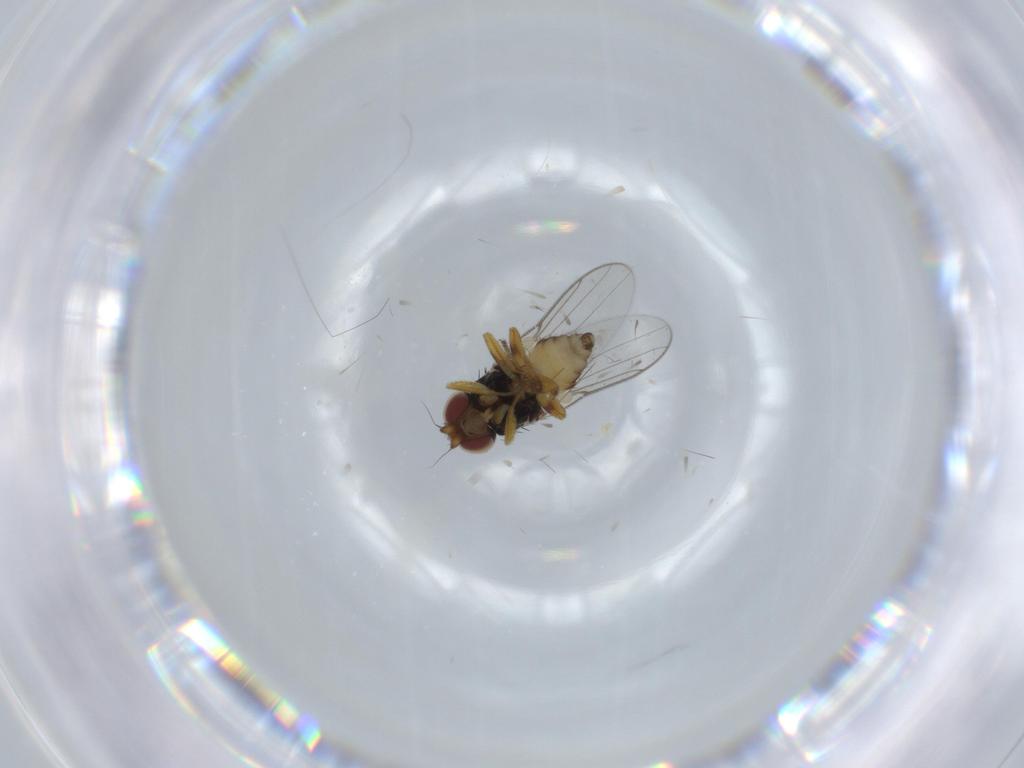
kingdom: Animalia
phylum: Arthropoda
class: Insecta
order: Diptera
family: Chloropidae
